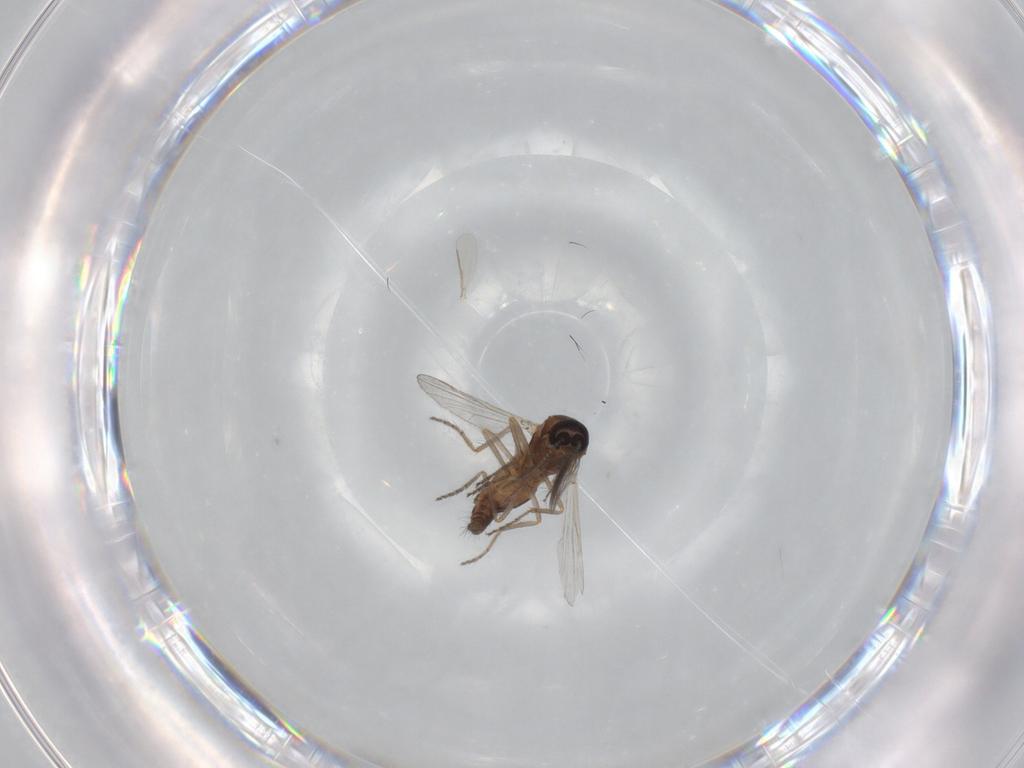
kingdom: Animalia
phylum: Arthropoda
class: Insecta
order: Diptera
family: Ceratopogonidae
